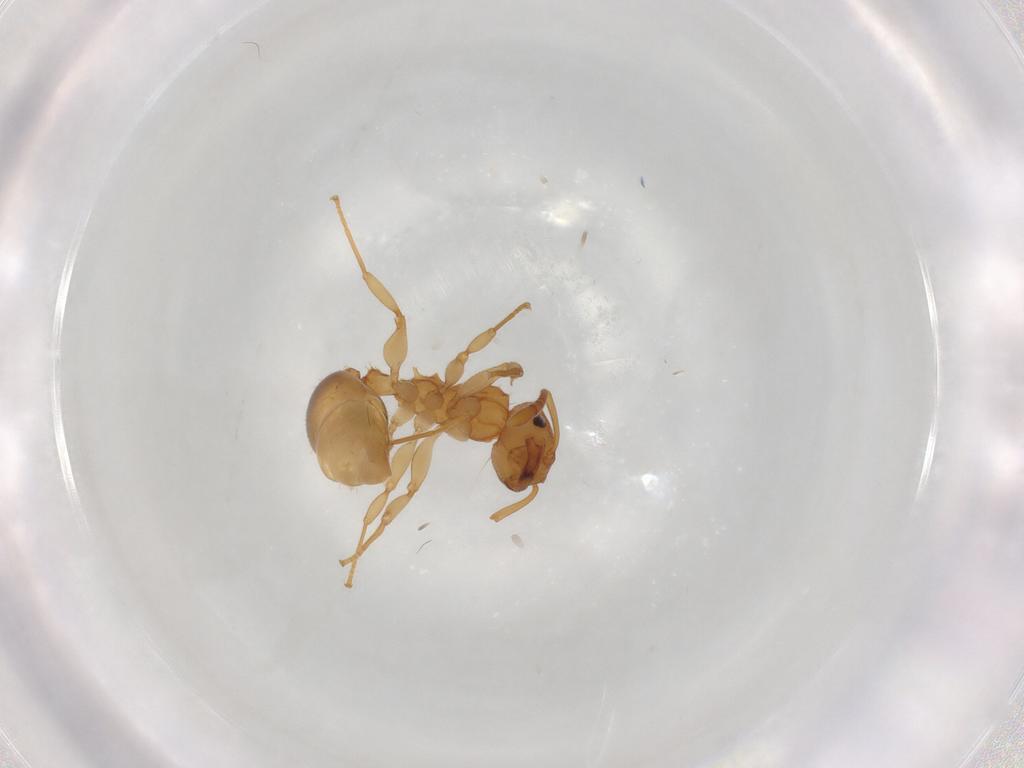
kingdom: Animalia
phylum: Arthropoda
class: Insecta
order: Hymenoptera
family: Formicidae
